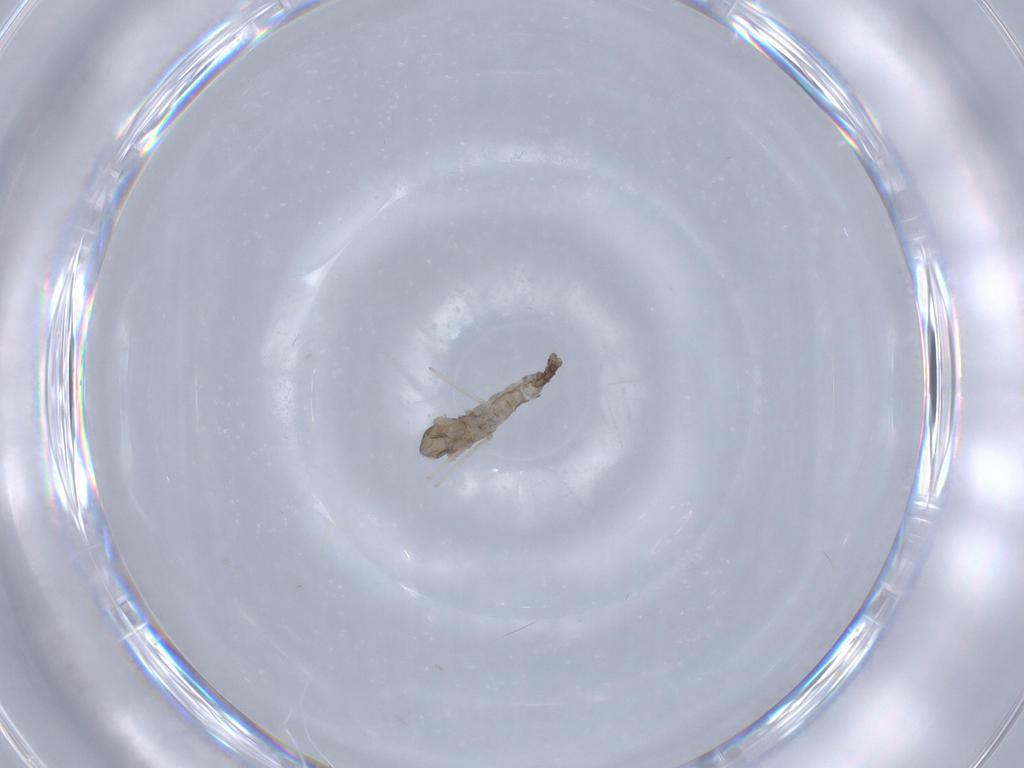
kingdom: Animalia
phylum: Arthropoda
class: Insecta
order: Diptera
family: Cecidomyiidae
